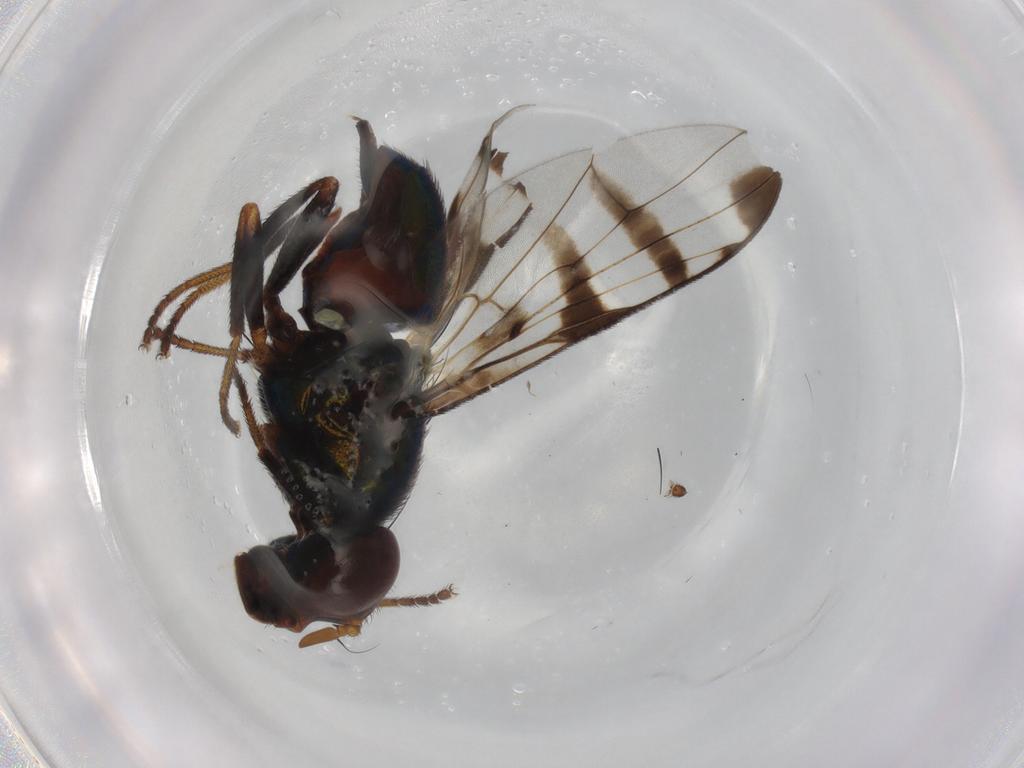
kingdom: Animalia
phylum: Arthropoda
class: Insecta
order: Diptera
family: Platystomatidae
